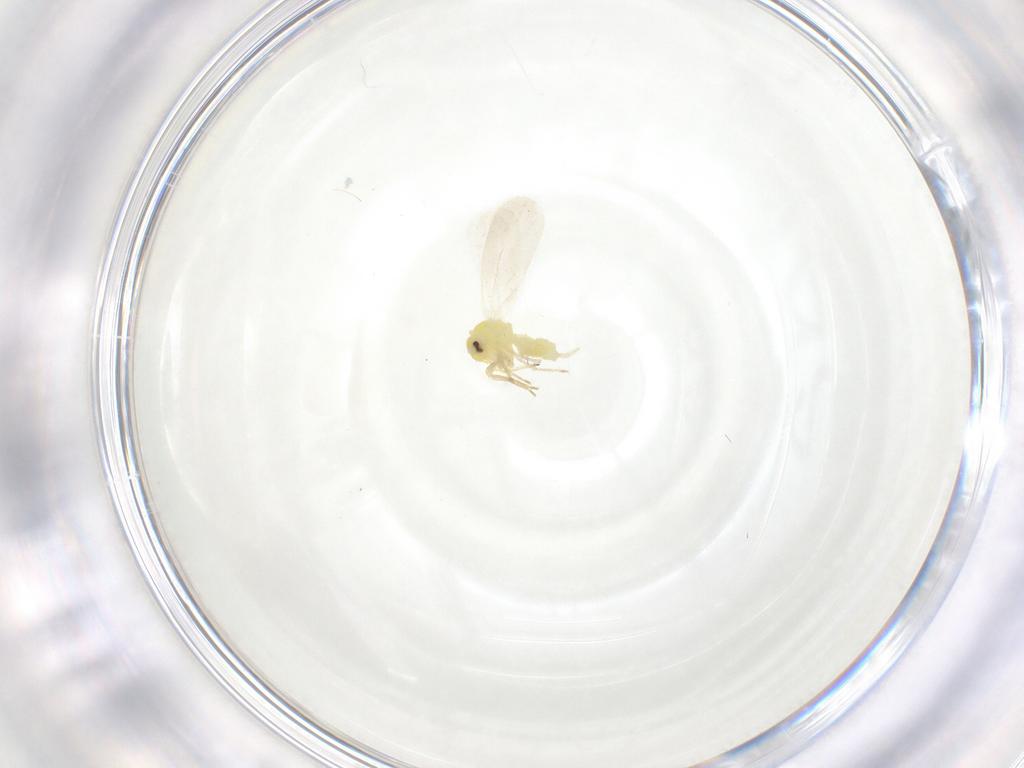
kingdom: Animalia
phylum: Arthropoda
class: Insecta
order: Hemiptera
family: Aleyrodidae
